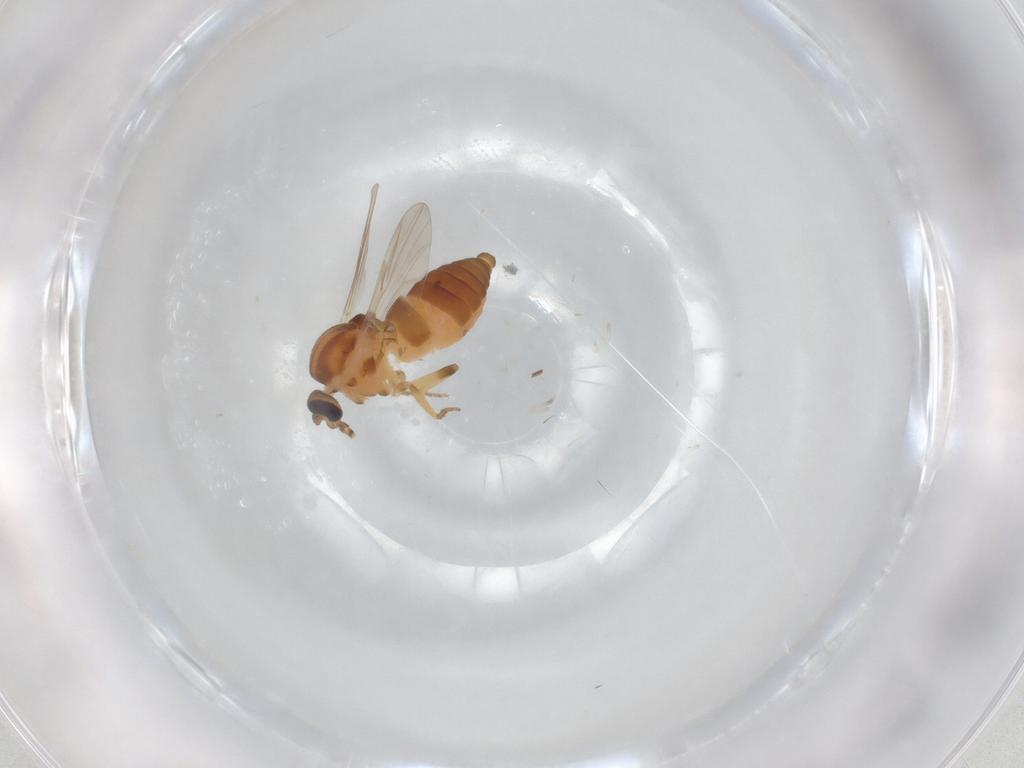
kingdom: Animalia
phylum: Arthropoda
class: Insecta
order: Diptera
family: Ceratopogonidae
